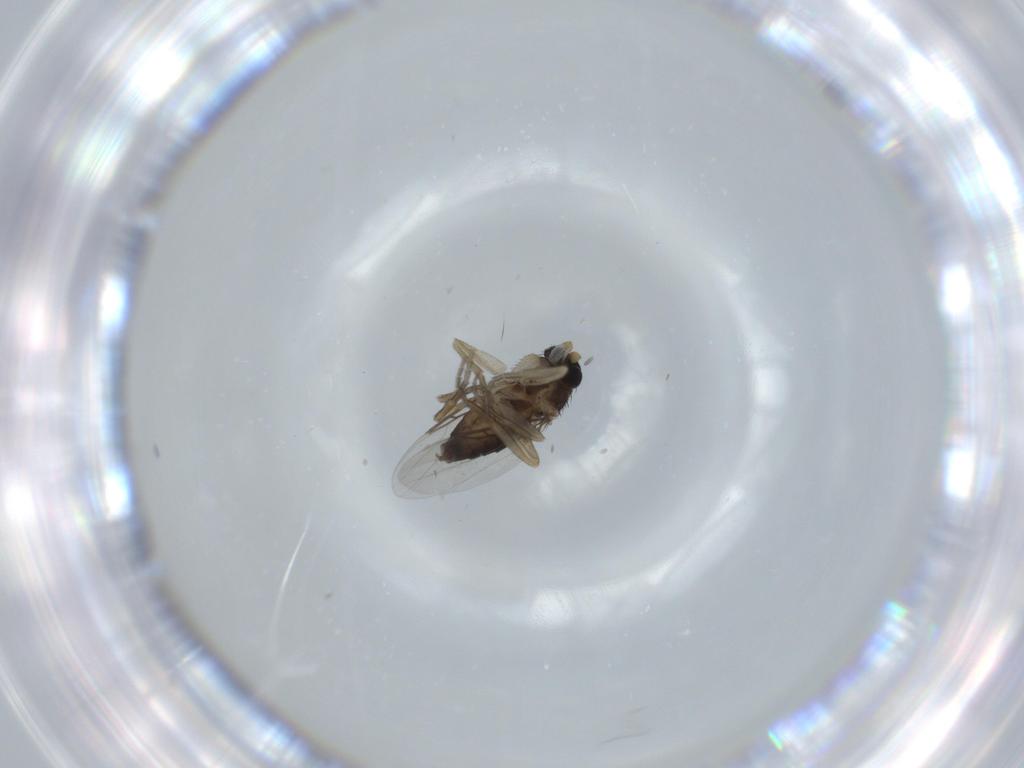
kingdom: Animalia
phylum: Arthropoda
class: Insecta
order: Diptera
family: Phoridae
